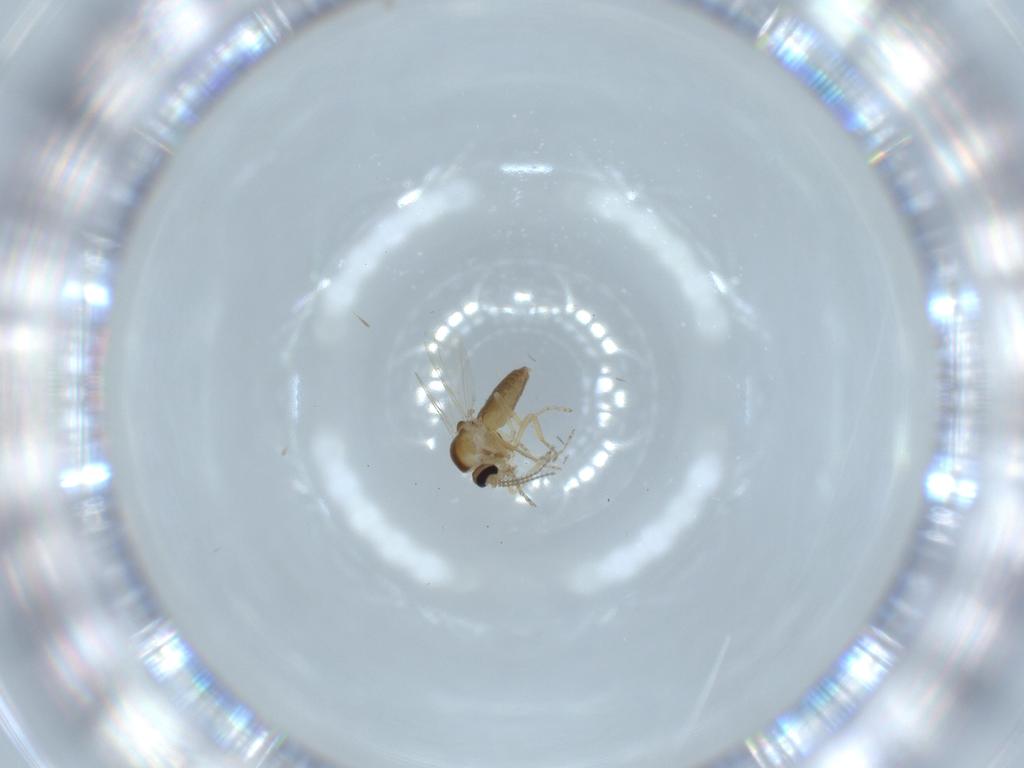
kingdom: Animalia
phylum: Arthropoda
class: Insecta
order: Diptera
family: Ceratopogonidae
